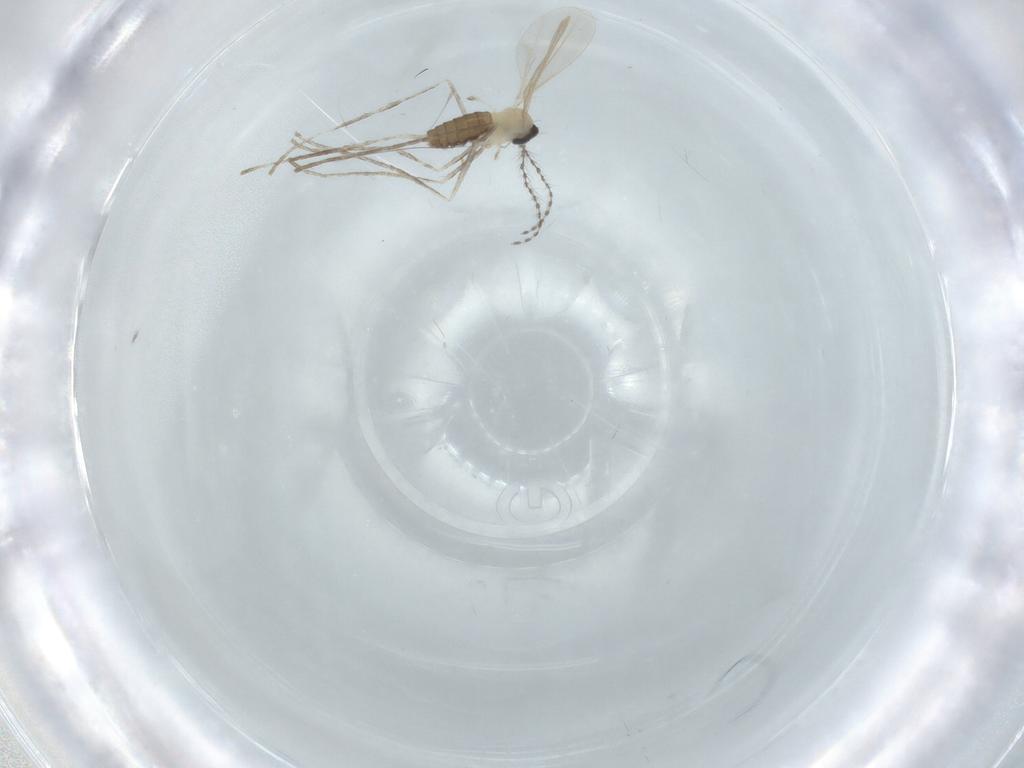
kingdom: Animalia
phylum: Arthropoda
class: Insecta
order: Diptera
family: Cecidomyiidae
